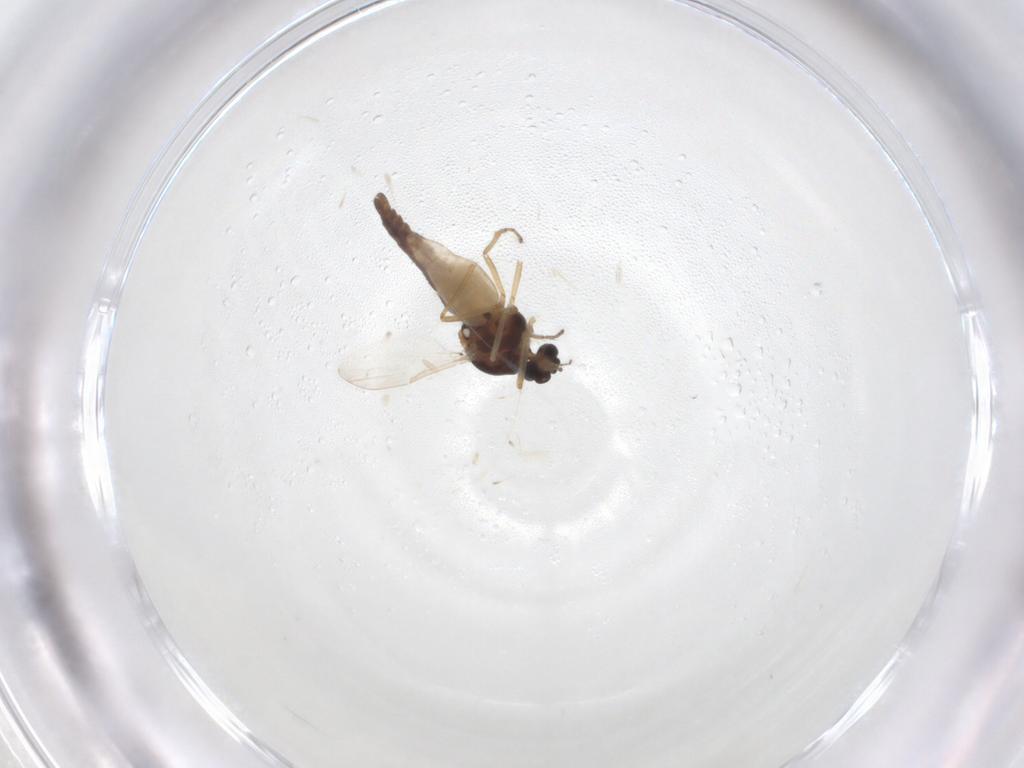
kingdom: Animalia
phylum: Arthropoda
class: Insecta
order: Diptera
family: Ceratopogonidae
